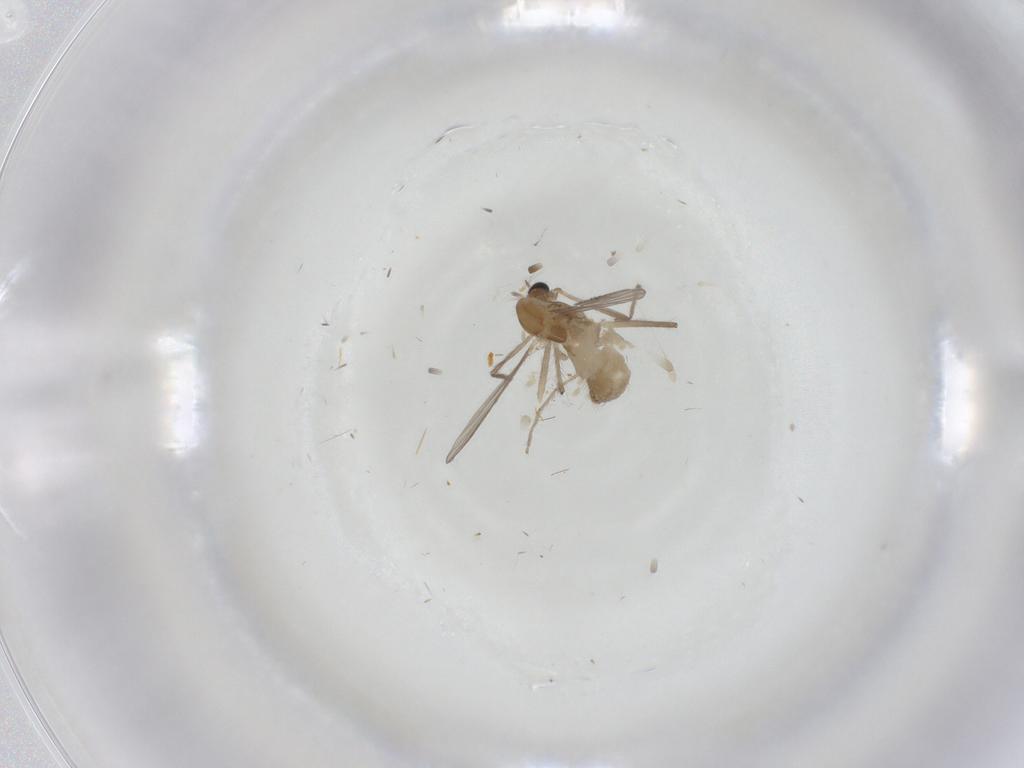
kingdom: Animalia
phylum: Arthropoda
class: Insecta
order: Diptera
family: Chironomidae
